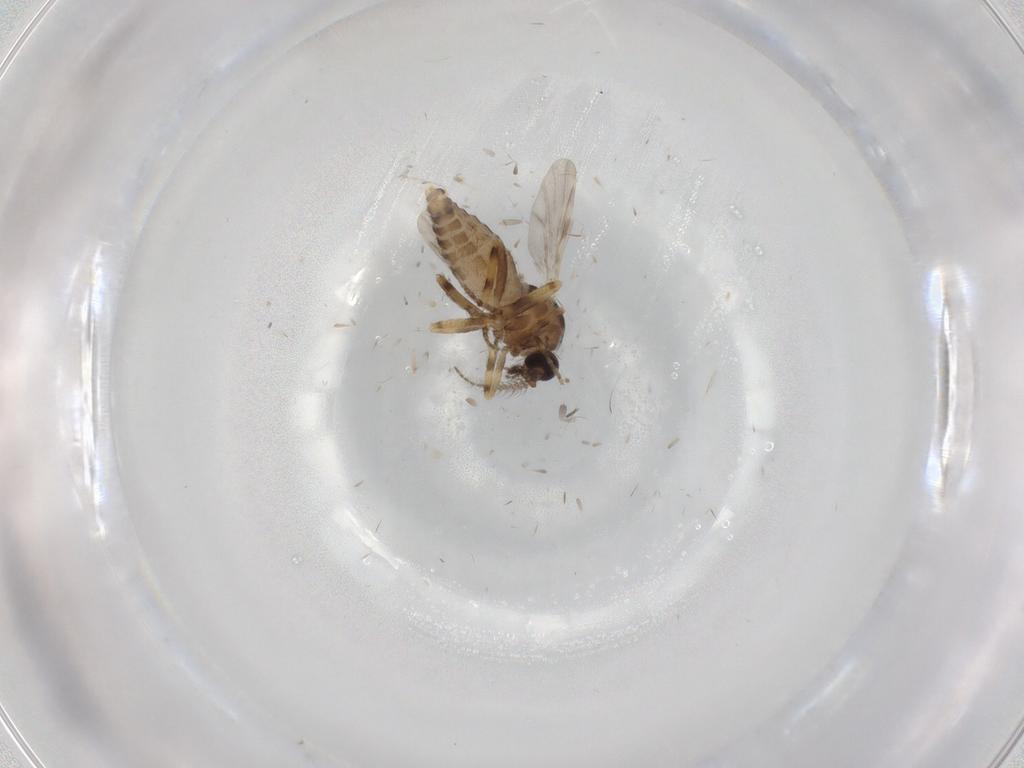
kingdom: Animalia
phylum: Arthropoda
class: Insecta
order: Diptera
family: Ceratopogonidae
